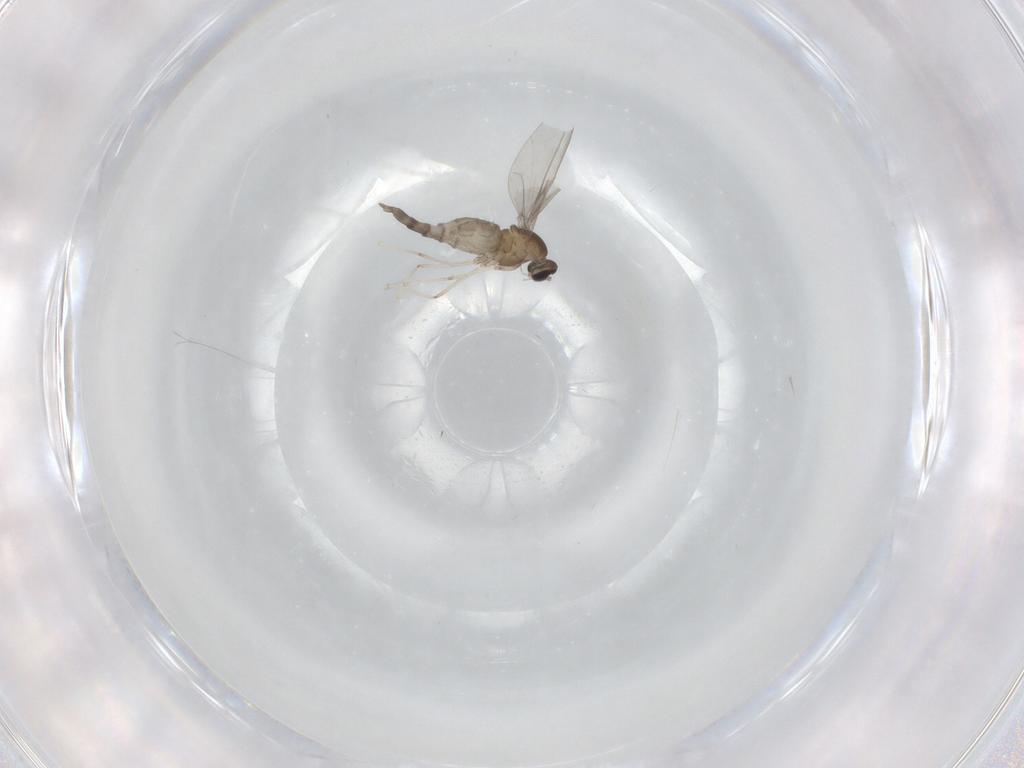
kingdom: Animalia
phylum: Arthropoda
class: Insecta
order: Diptera
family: Cecidomyiidae
